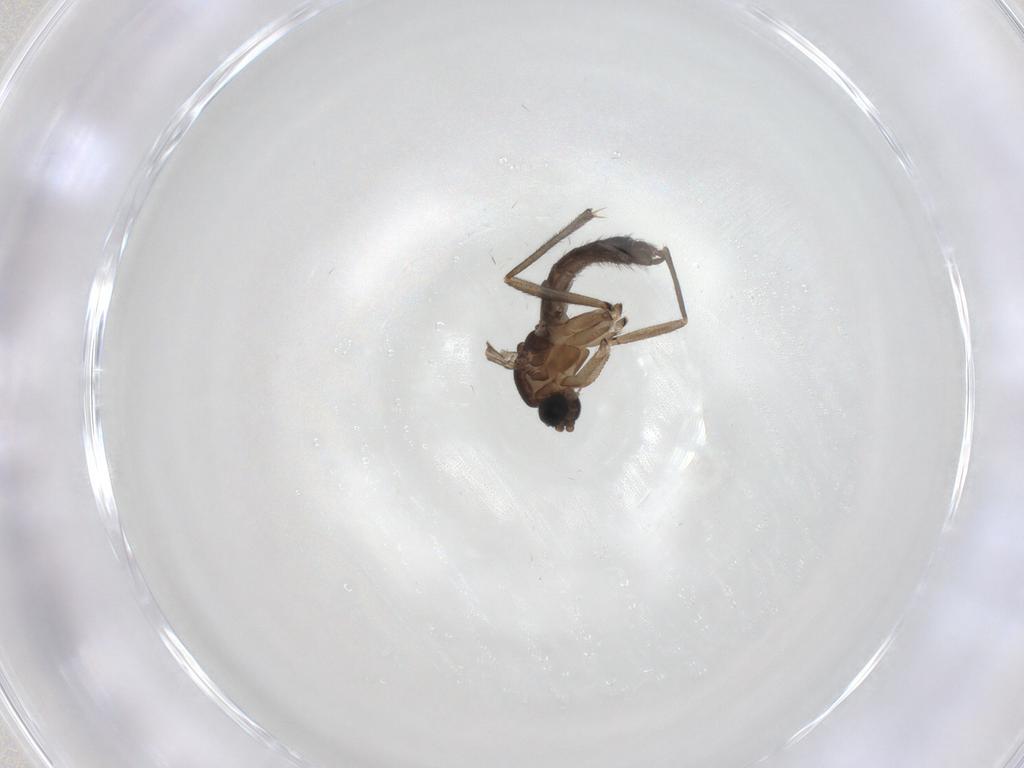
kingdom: Animalia
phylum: Arthropoda
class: Insecta
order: Diptera
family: Sciaridae
